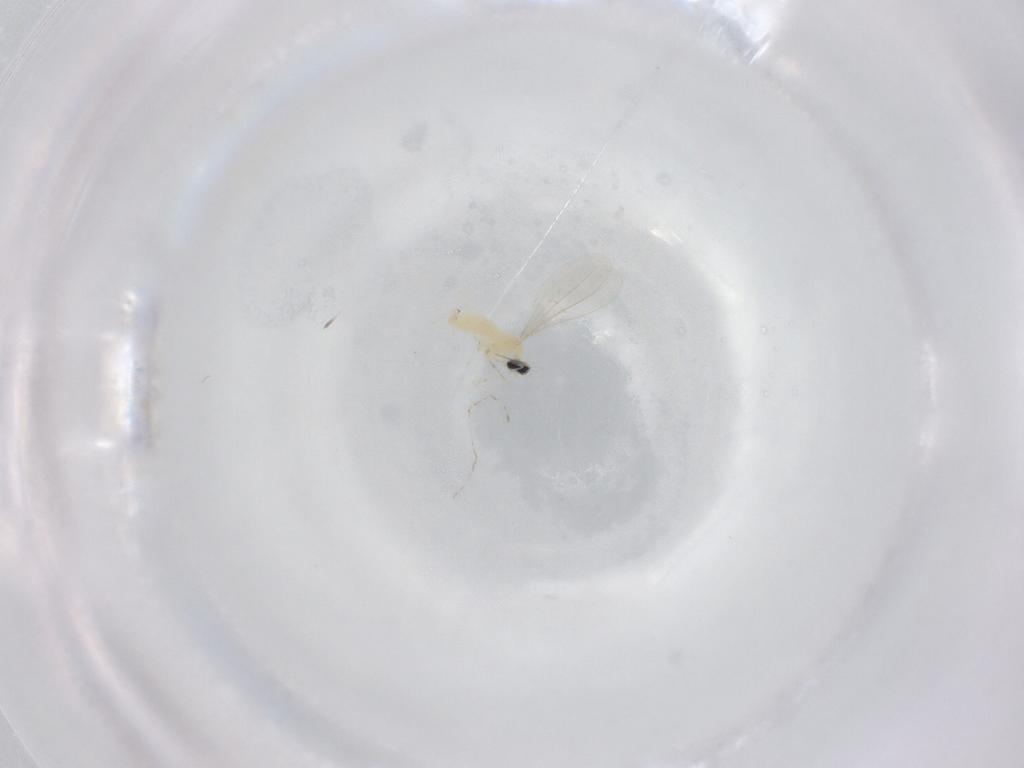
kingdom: Animalia
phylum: Arthropoda
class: Insecta
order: Diptera
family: Cecidomyiidae
